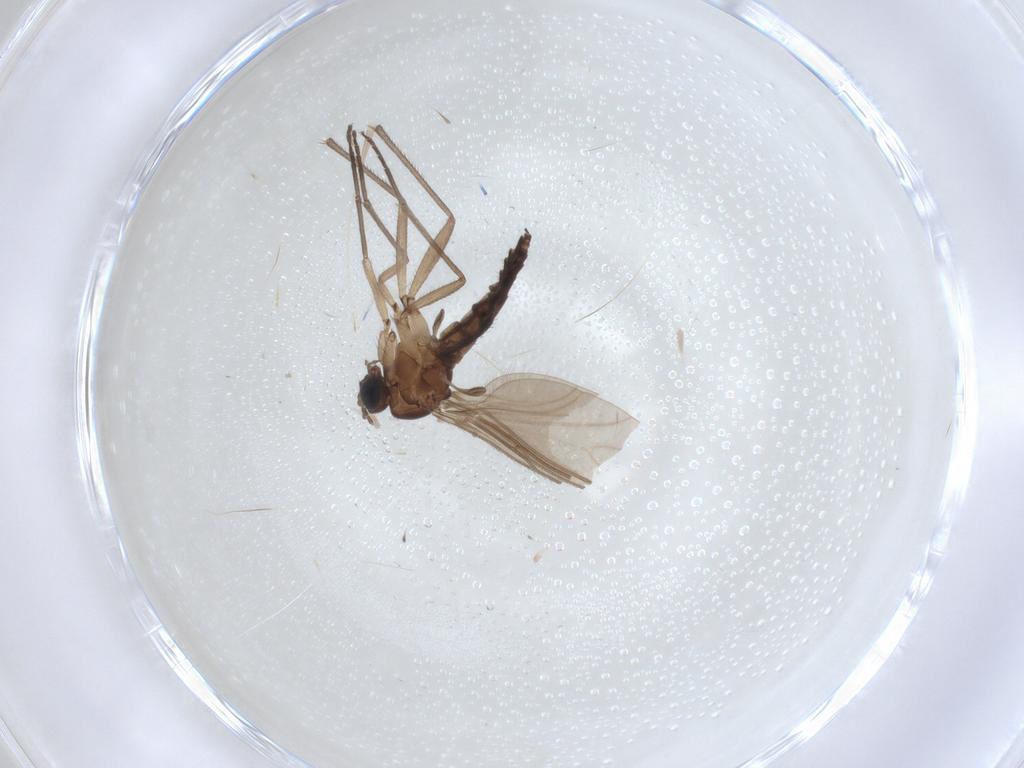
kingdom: Animalia
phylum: Arthropoda
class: Insecta
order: Diptera
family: Sciaridae
